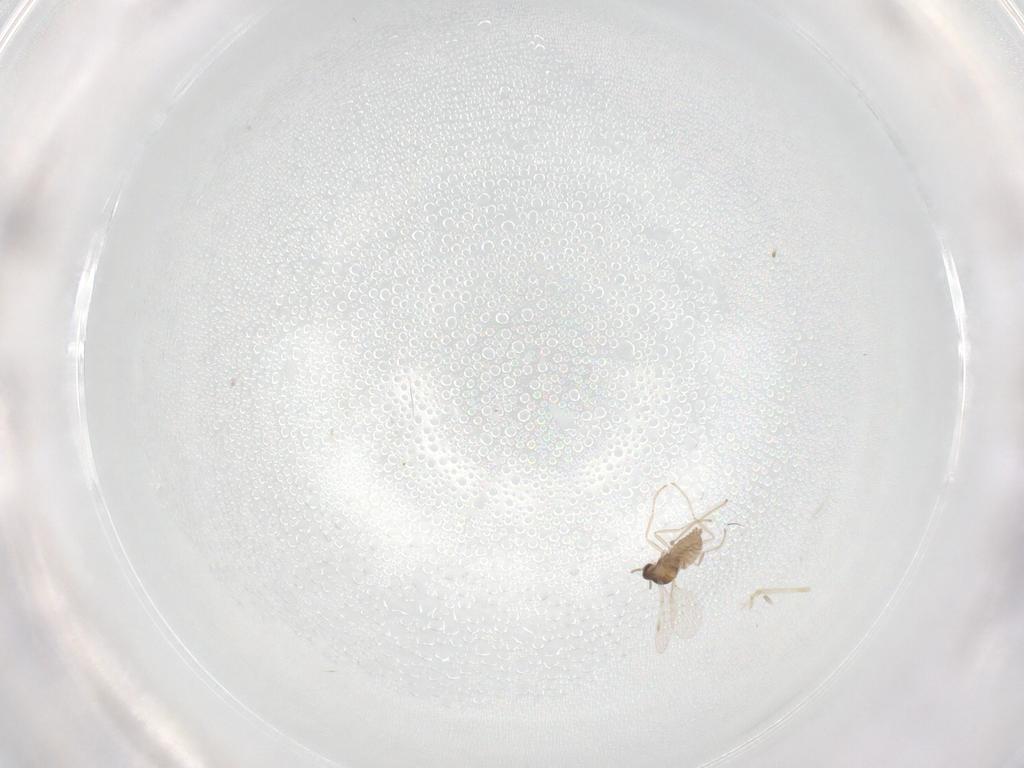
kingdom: Animalia
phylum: Arthropoda
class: Insecta
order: Diptera
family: Cecidomyiidae
